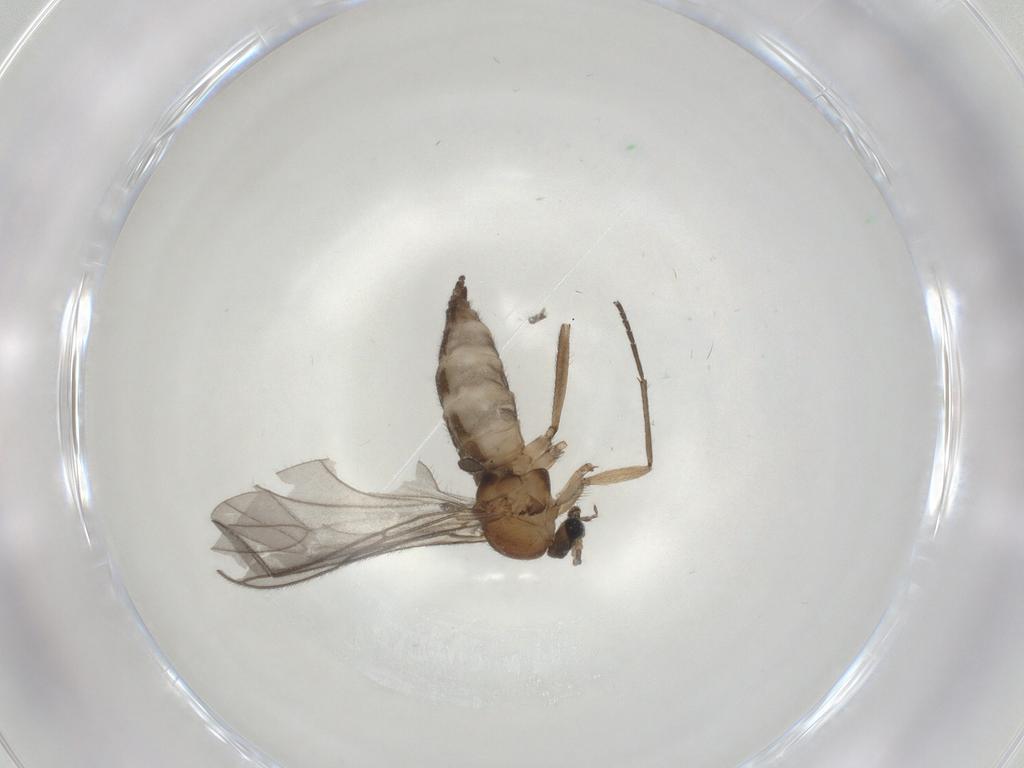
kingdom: Animalia
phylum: Arthropoda
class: Insecta
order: Diptera
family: Sciaridae
